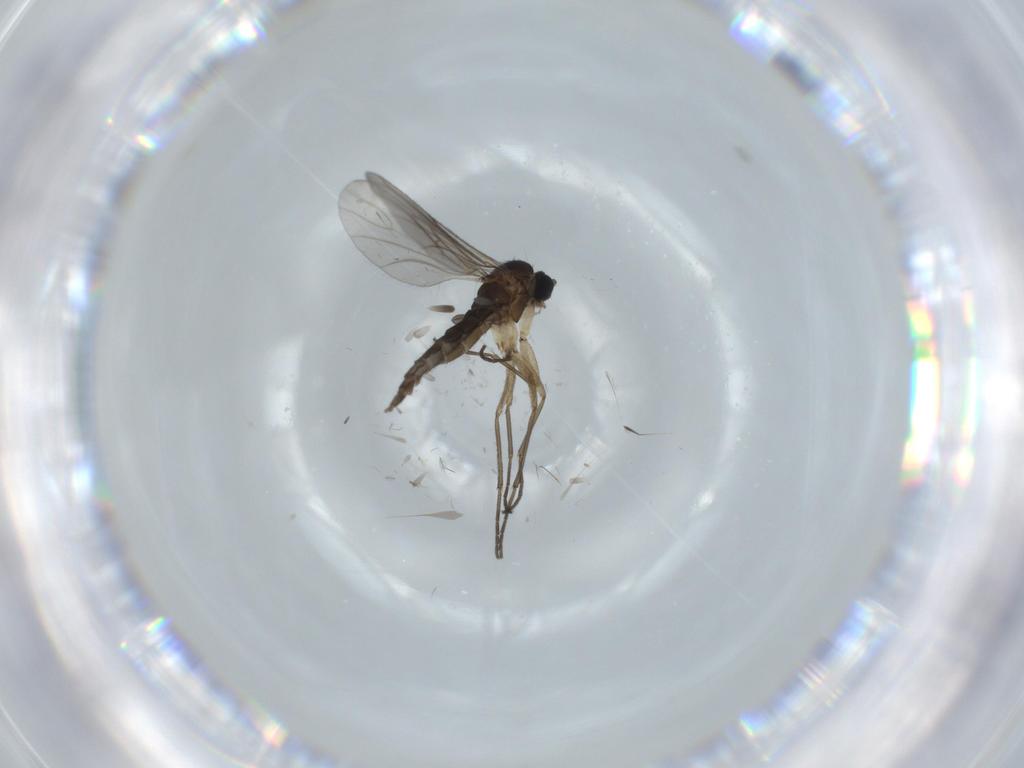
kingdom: Animalia
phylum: Arthropoda
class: Insecta
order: Diptera
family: Sciaridae
